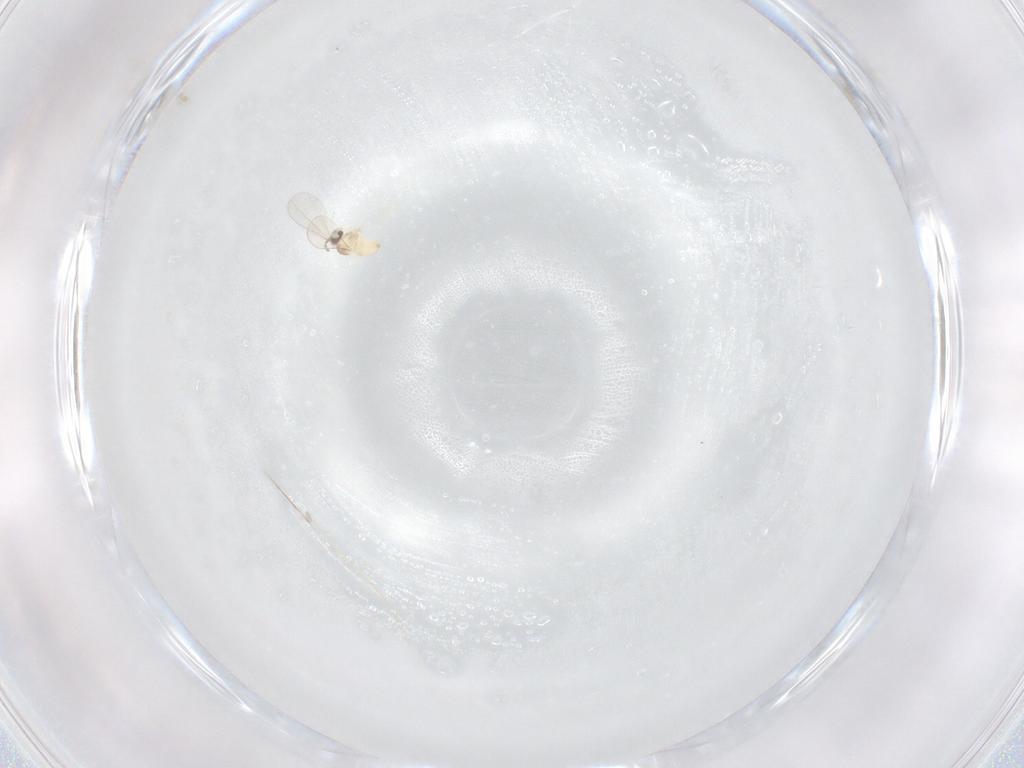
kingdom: Animalia
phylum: Arthropoda
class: Insecta
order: Diptera
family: Cecidomyiidae
